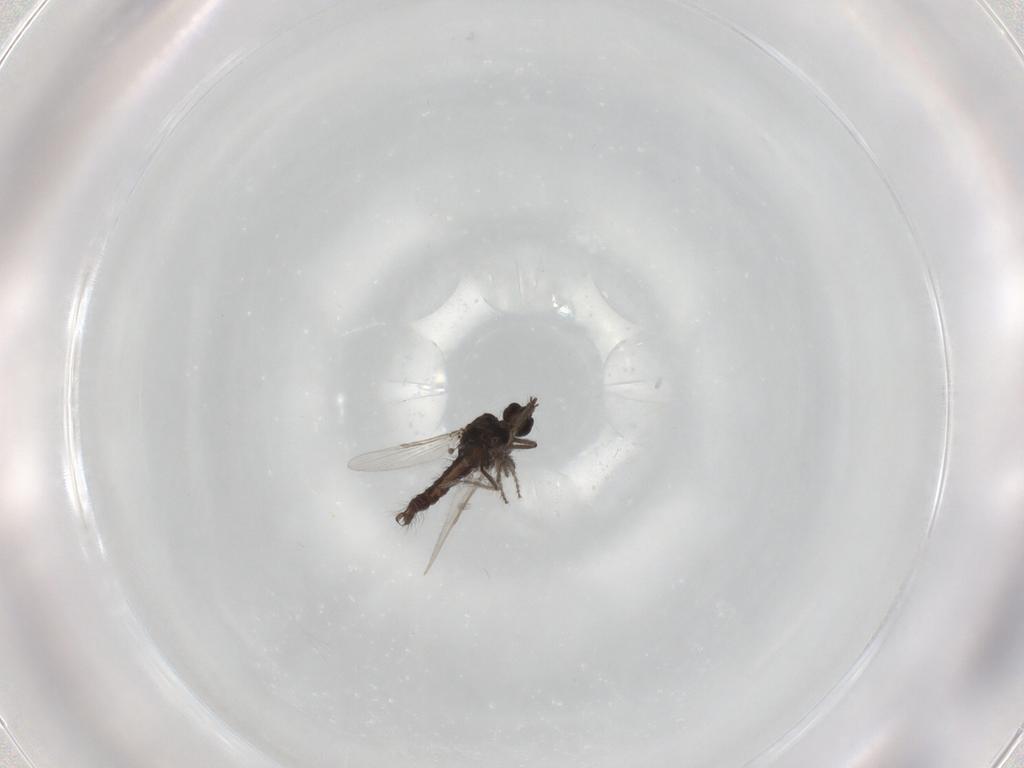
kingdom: Animalia
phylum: Arthropoda
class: Insecta
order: Diptera
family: Ceratopogonidae
